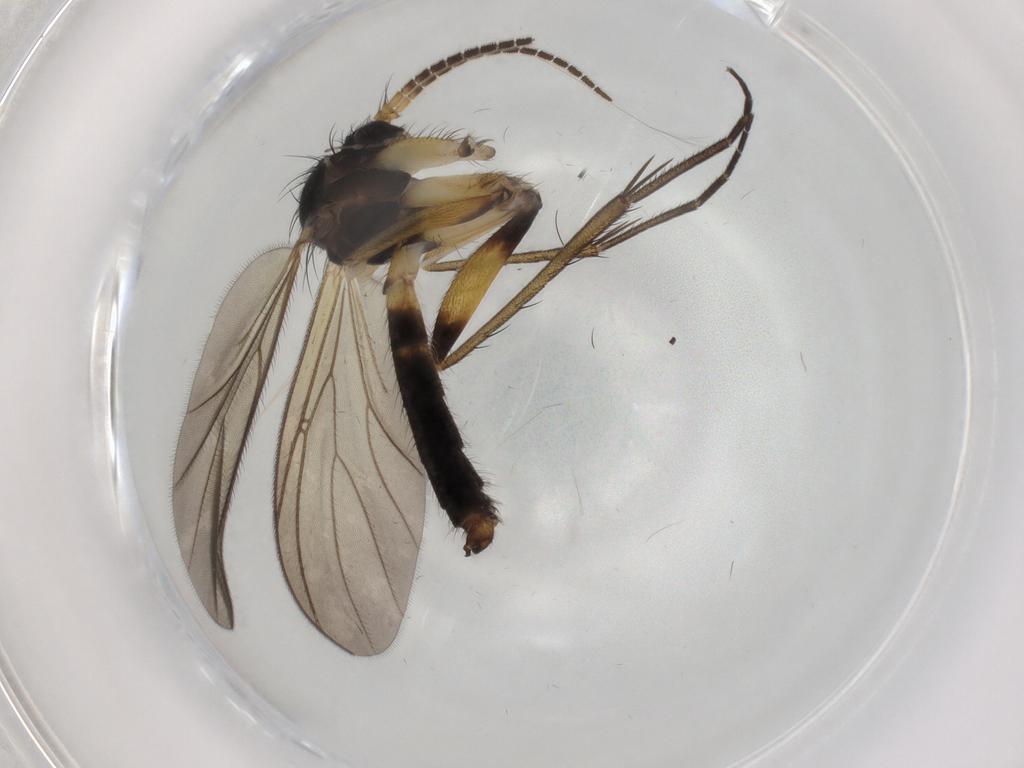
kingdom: Animalia
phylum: Arthropoda
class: Insecta
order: Diptera
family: Mycetophilidae
